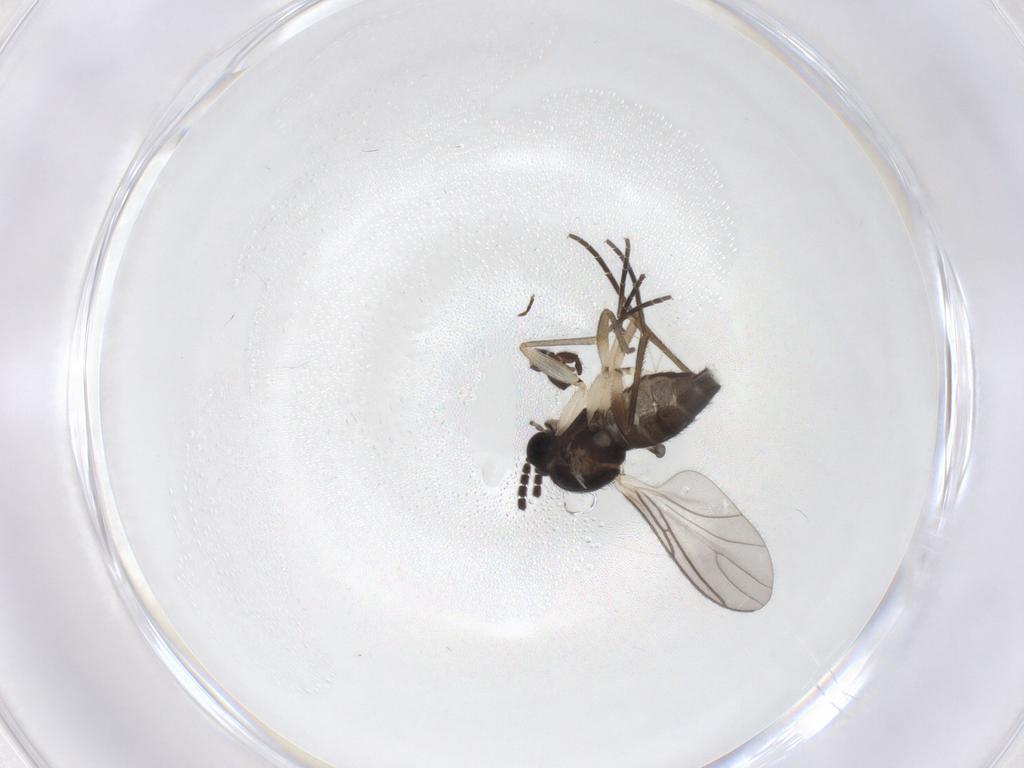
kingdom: Animalia
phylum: Arthropoda
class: Insecta
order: Diptera
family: Sciaridae
